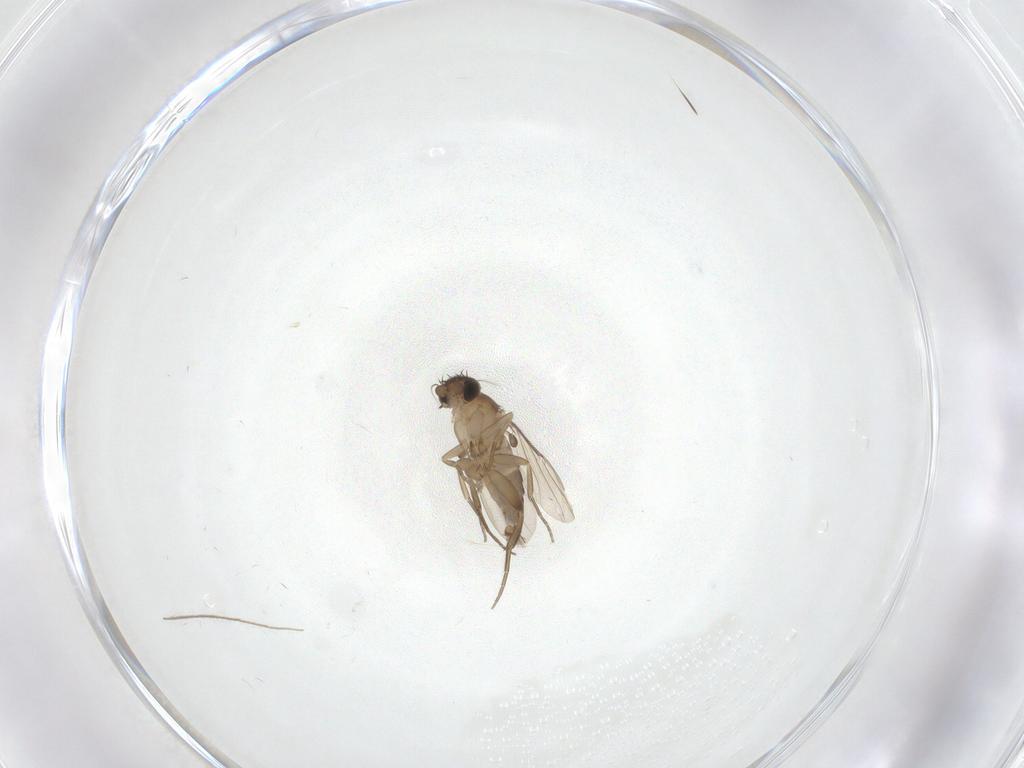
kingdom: Animalia
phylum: Arthropoda
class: Insecta
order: Diptera
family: Phoridae
